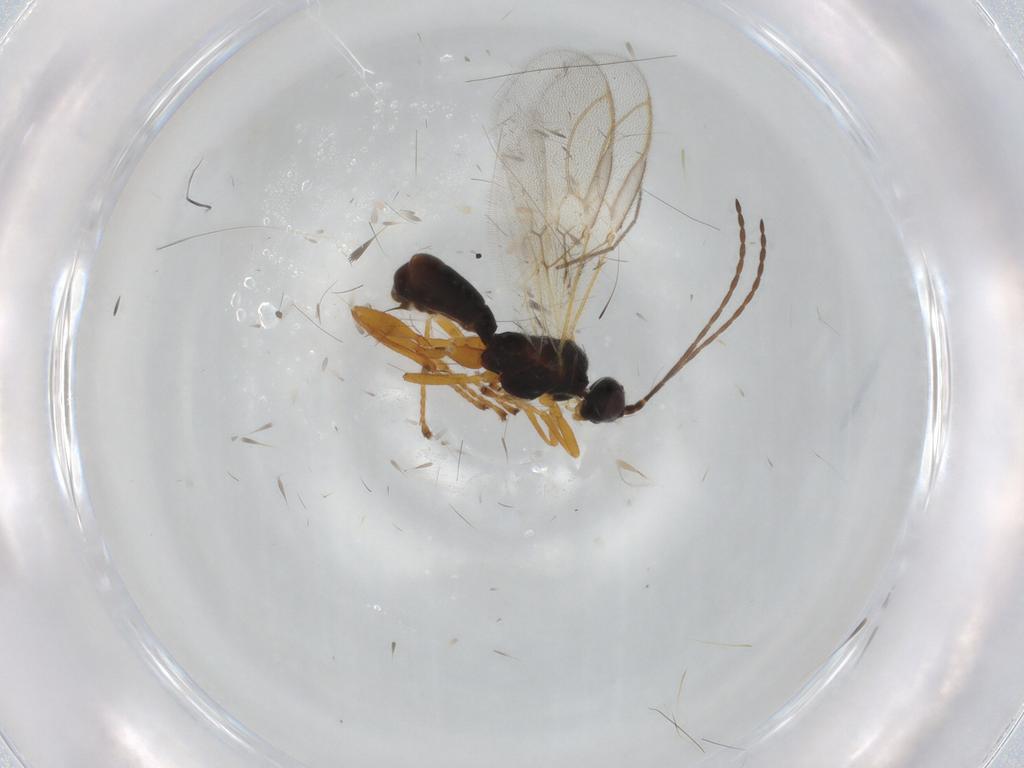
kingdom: Animalia
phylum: Arthropoda
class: Insecta
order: Hymenoptera
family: Braconidae
